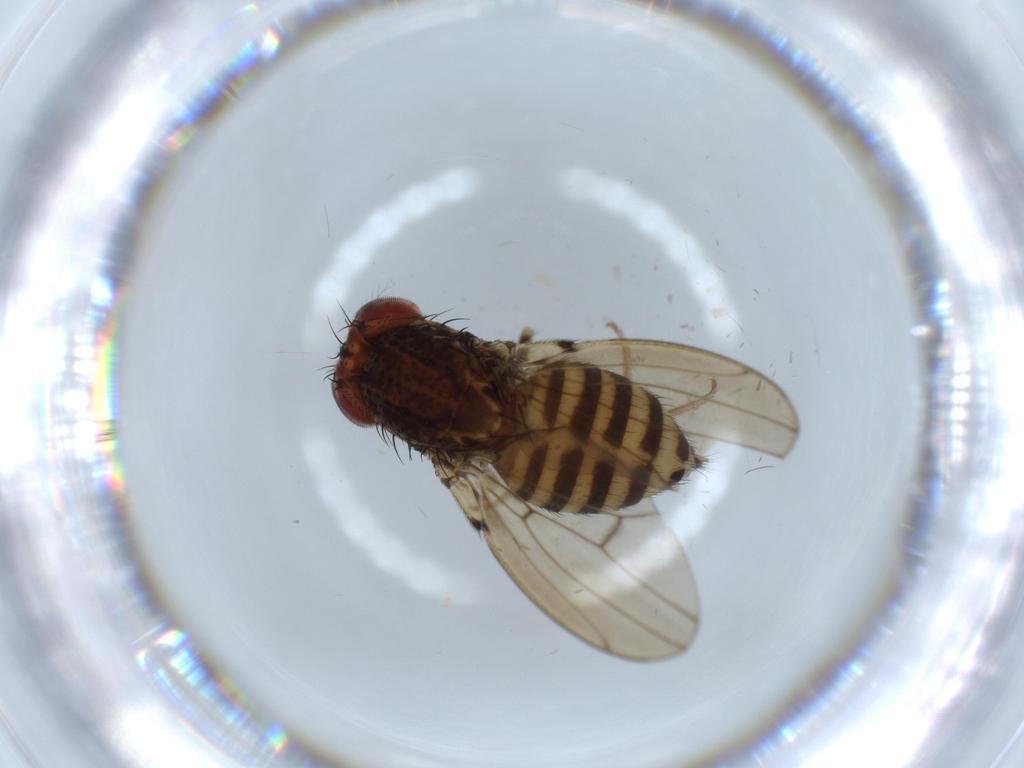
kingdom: Animalia
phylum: Arthropoda
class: Insecta
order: Diptera
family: Drosophilidae
